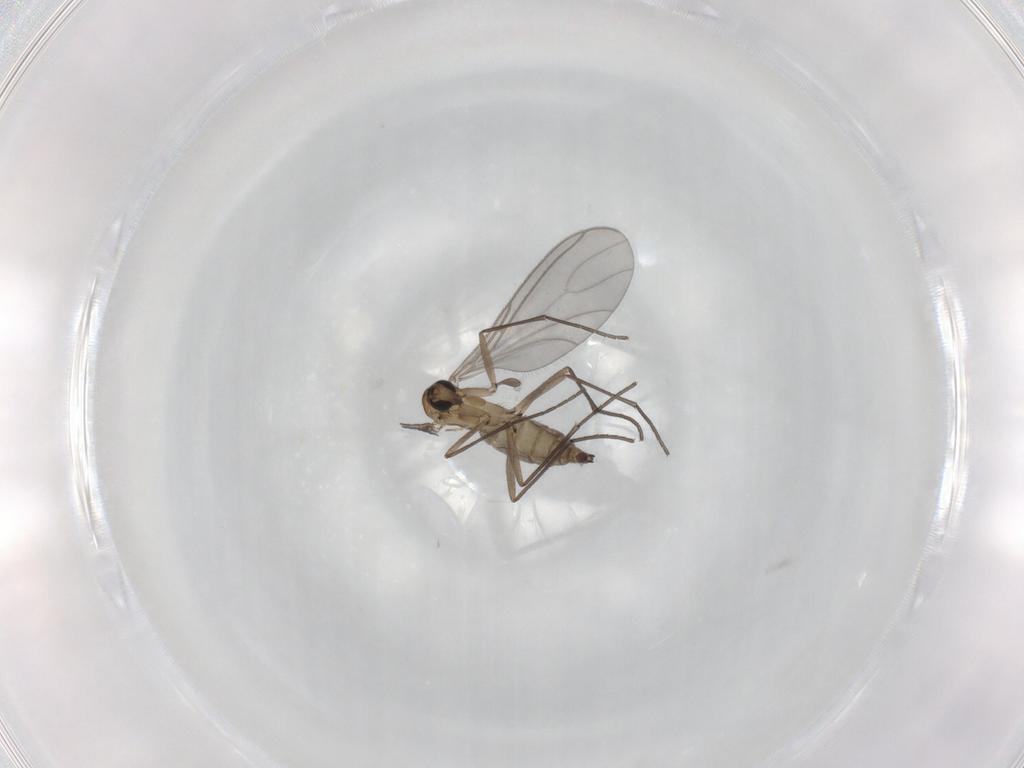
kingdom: Animalia
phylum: Arthropoda
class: Insecta
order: Diptera
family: Sciaridae
